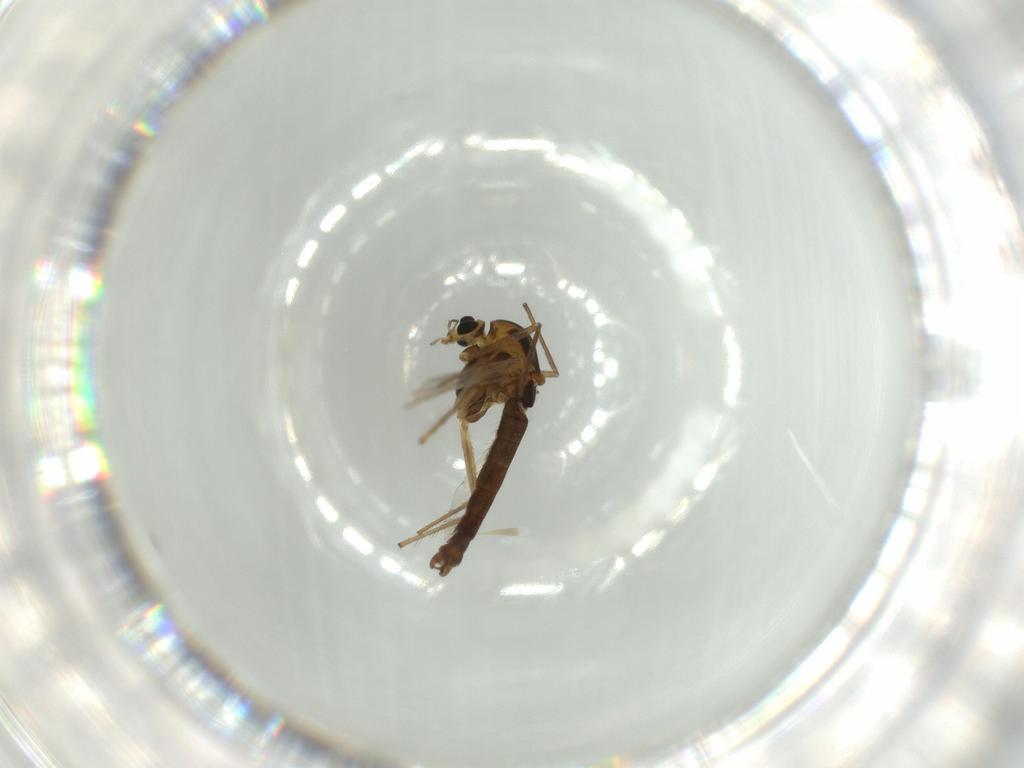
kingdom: Animalia
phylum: Arthropoda
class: Insecta
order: Diptera
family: Chironomidae
